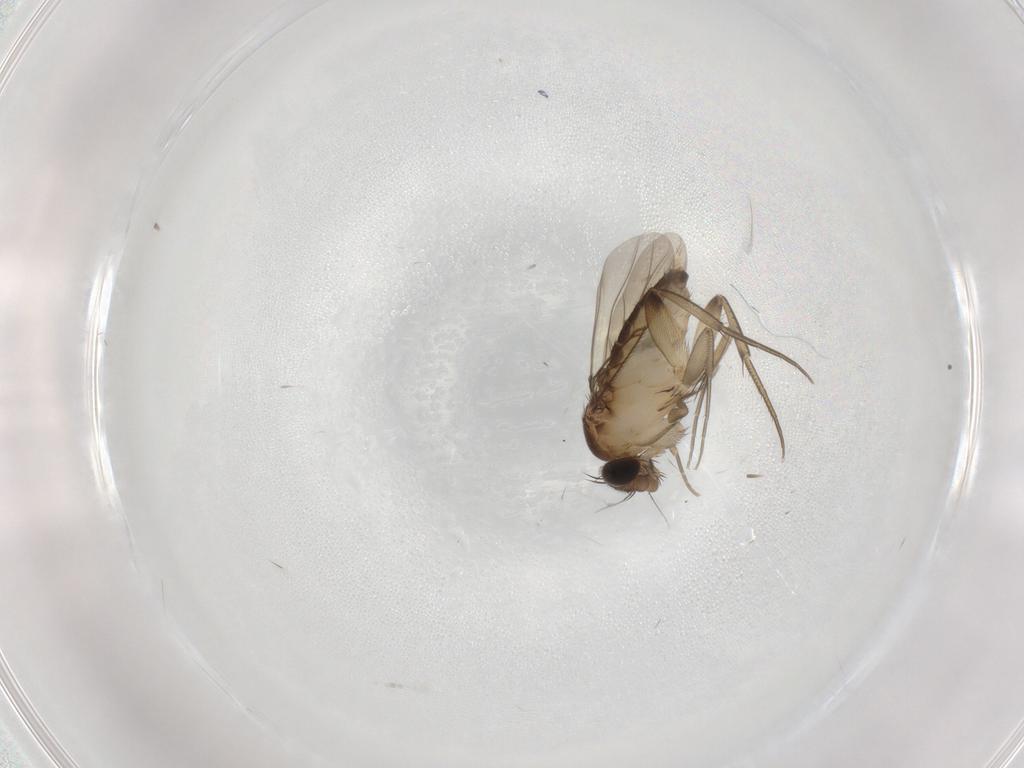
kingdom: Animalia
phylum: Arthropoda
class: Insecta
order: Diptera
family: Phoridae
